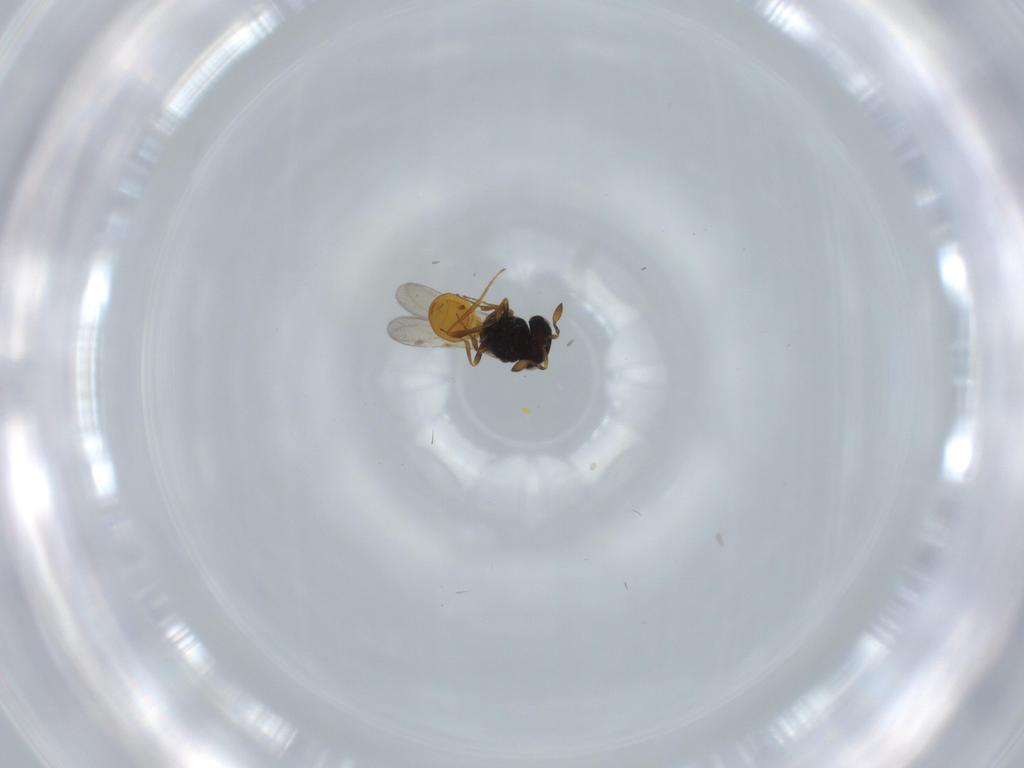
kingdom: Animalia
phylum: Arthropoda
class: Insecta
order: Hymenoptera
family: Scelionidae
